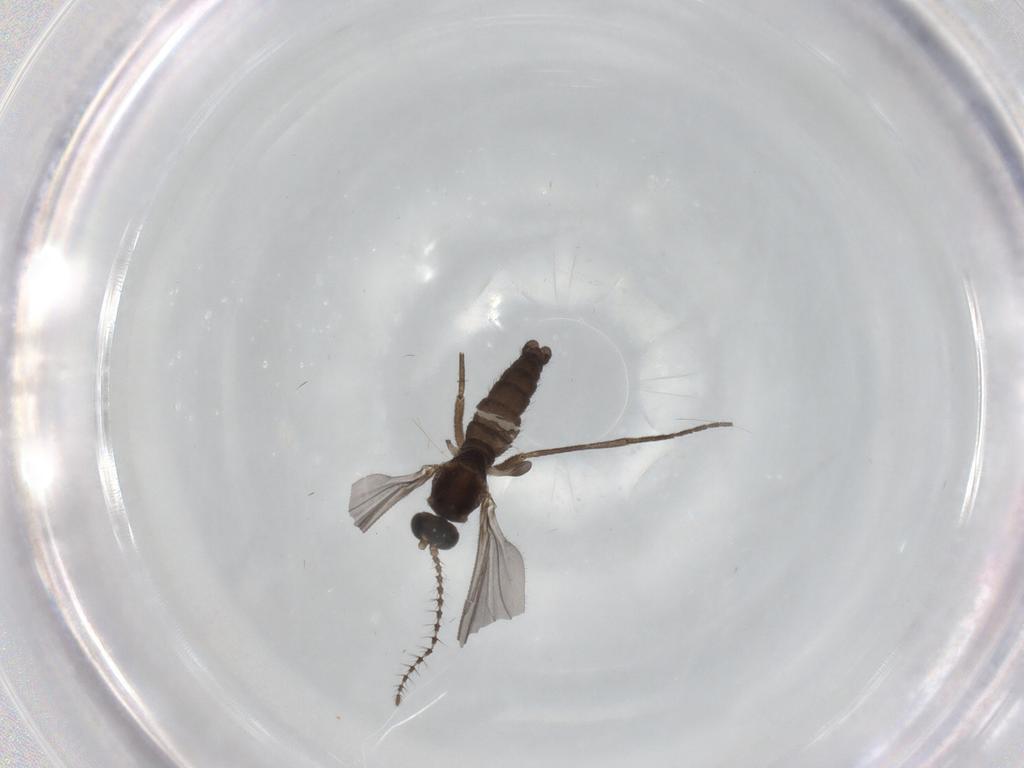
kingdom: Animalia
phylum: Arthropoda
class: Insecta
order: Diptera
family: Sciaridae
